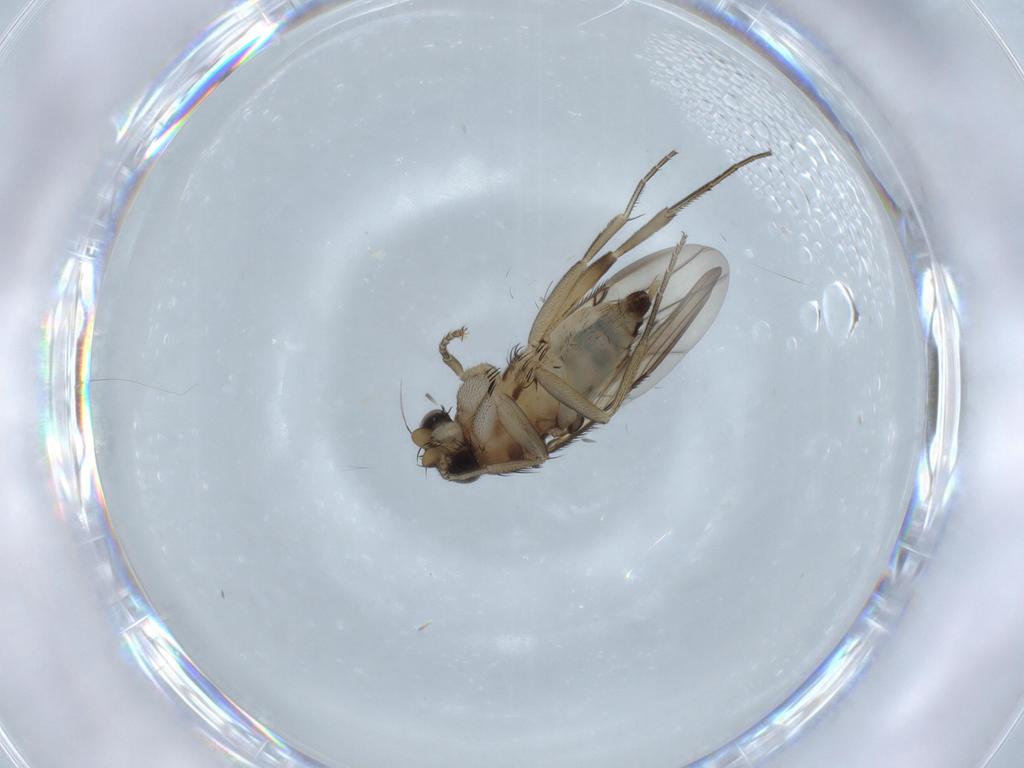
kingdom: Animalia
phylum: Arthropoda
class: Insecta
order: Diptera
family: Phoridae
